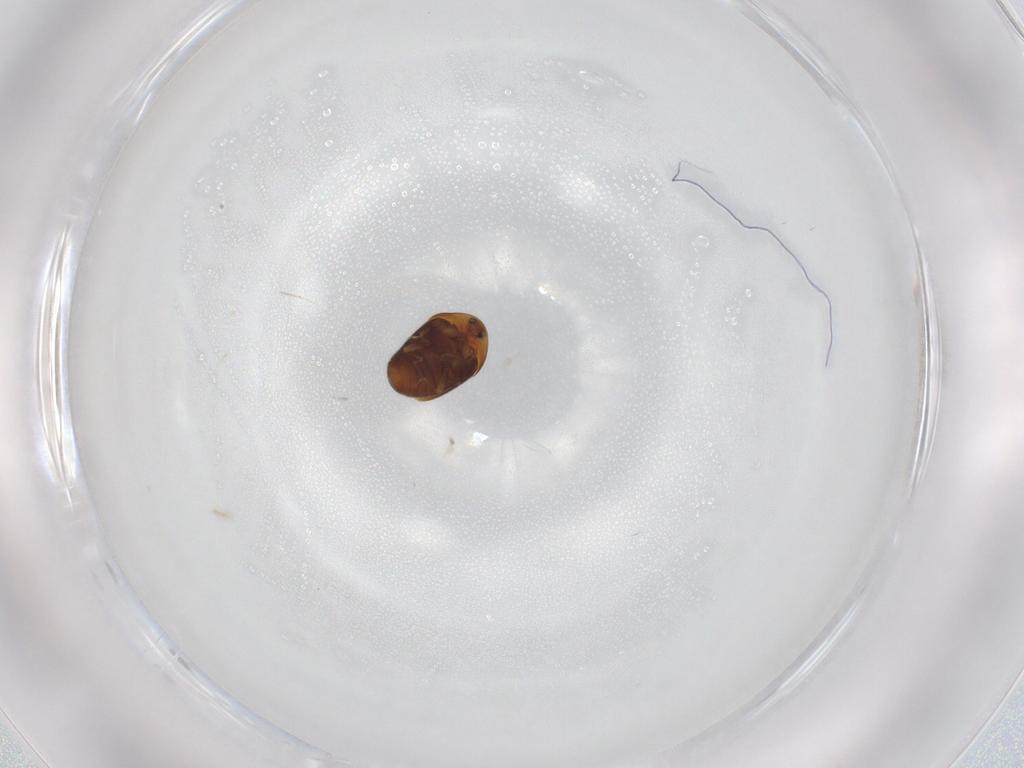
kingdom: Animalia
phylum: Arthropoda
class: Insecta
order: Coleoptera
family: Corylophidae
